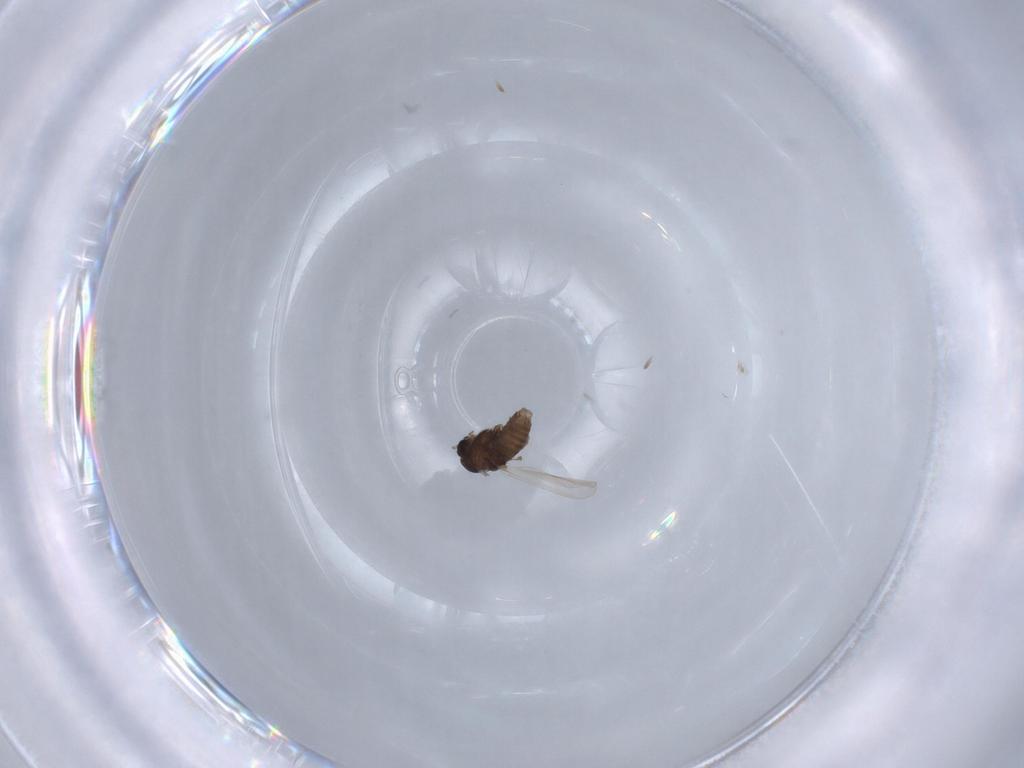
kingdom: Animalia
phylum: Arthropoda
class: Insecta
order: Diptera
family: Chironomidae
